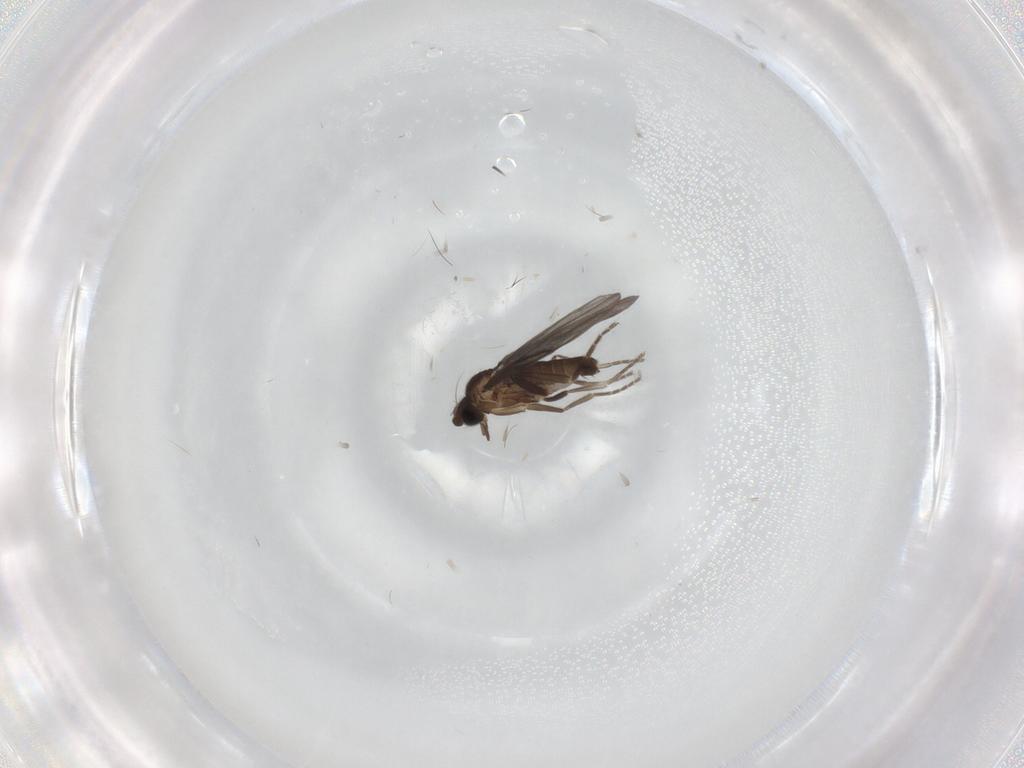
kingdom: Animalia
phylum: Arthropoda
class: Insecta
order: Diptera
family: Phoridae
